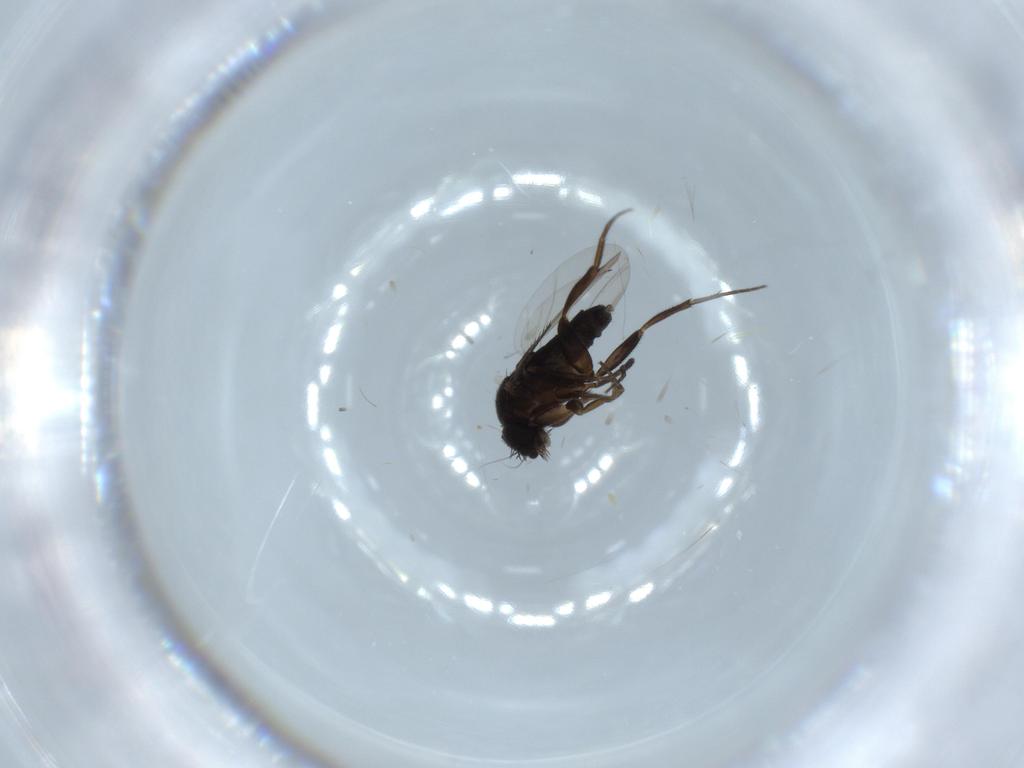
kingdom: Animalia
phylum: Arthropoda
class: Insecta
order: Diptera
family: Phoridae
